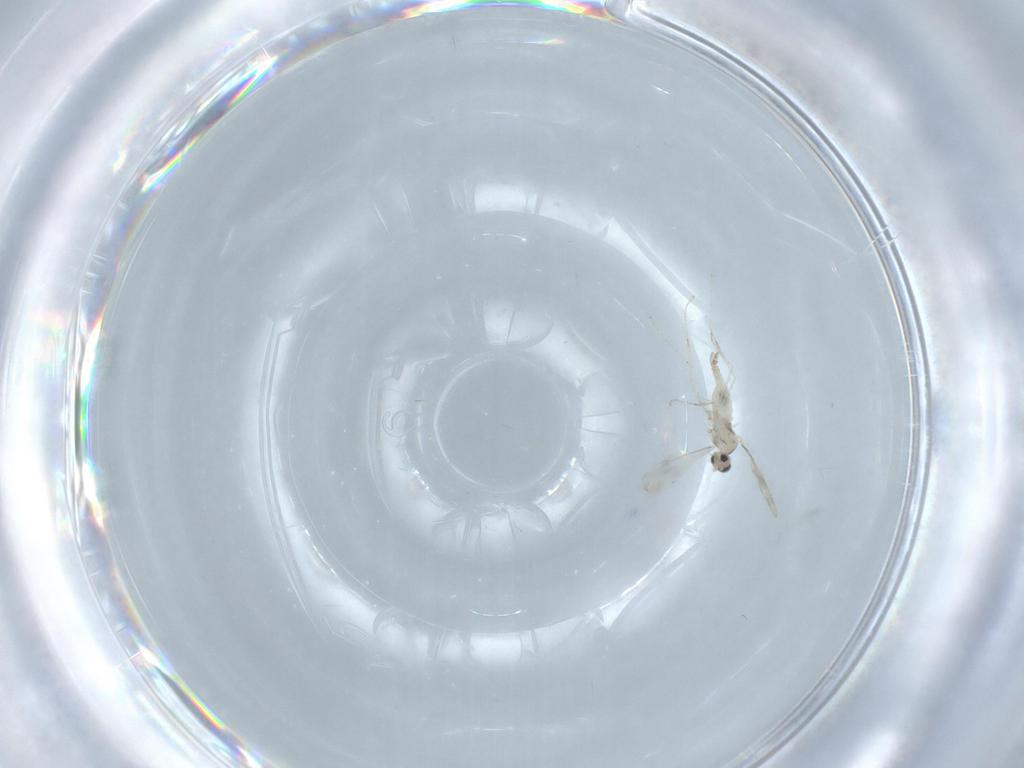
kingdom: Animalia
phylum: Arthropoda
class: Insecta
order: Diptera
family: Cecidomyiidae
